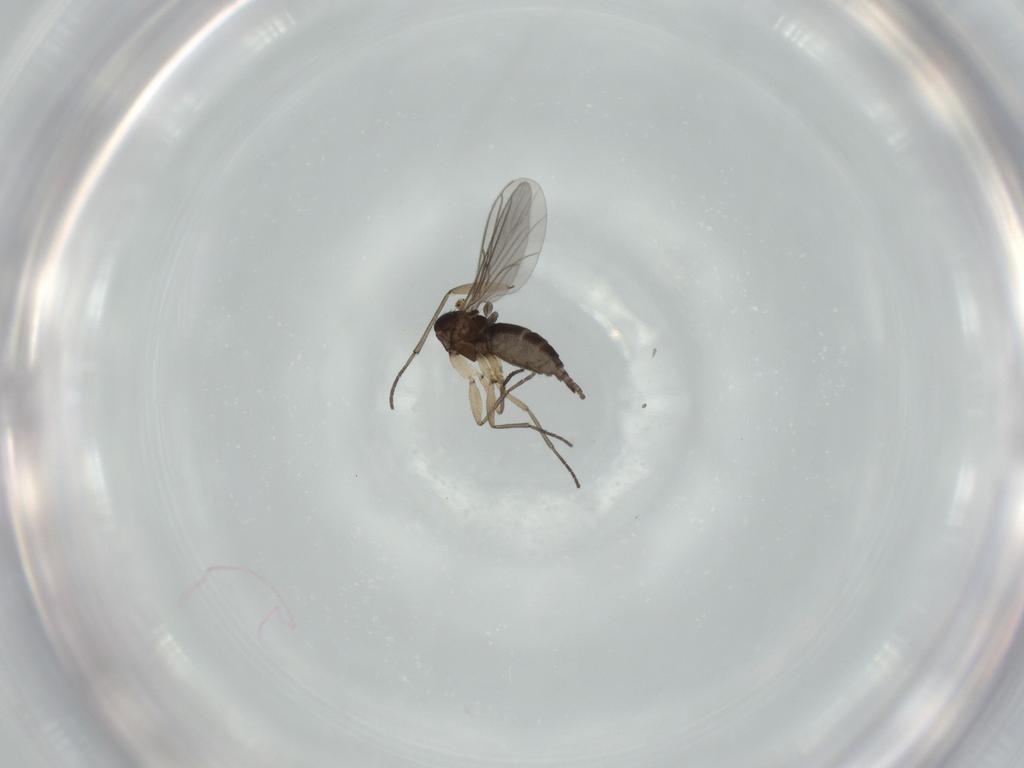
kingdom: Animalia
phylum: Arthropoda
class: Insecta
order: Diptera
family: Sciaridae
